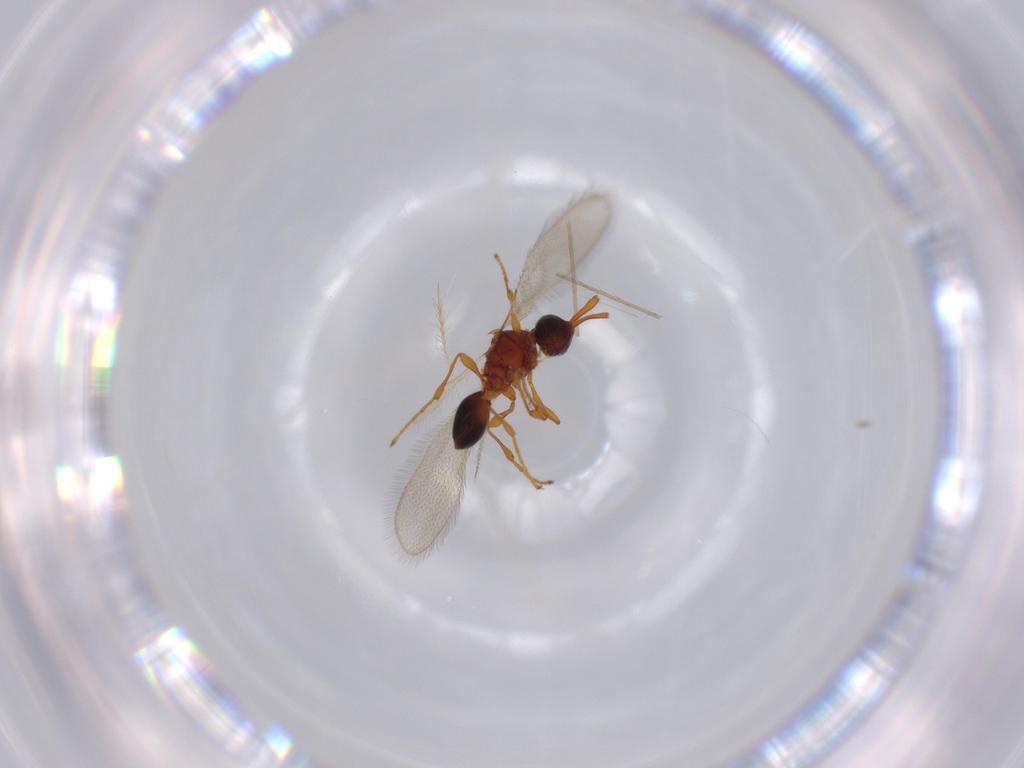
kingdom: Animalia
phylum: Arthropoda
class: Insecta
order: Hymenoptera
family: Diapriidae
